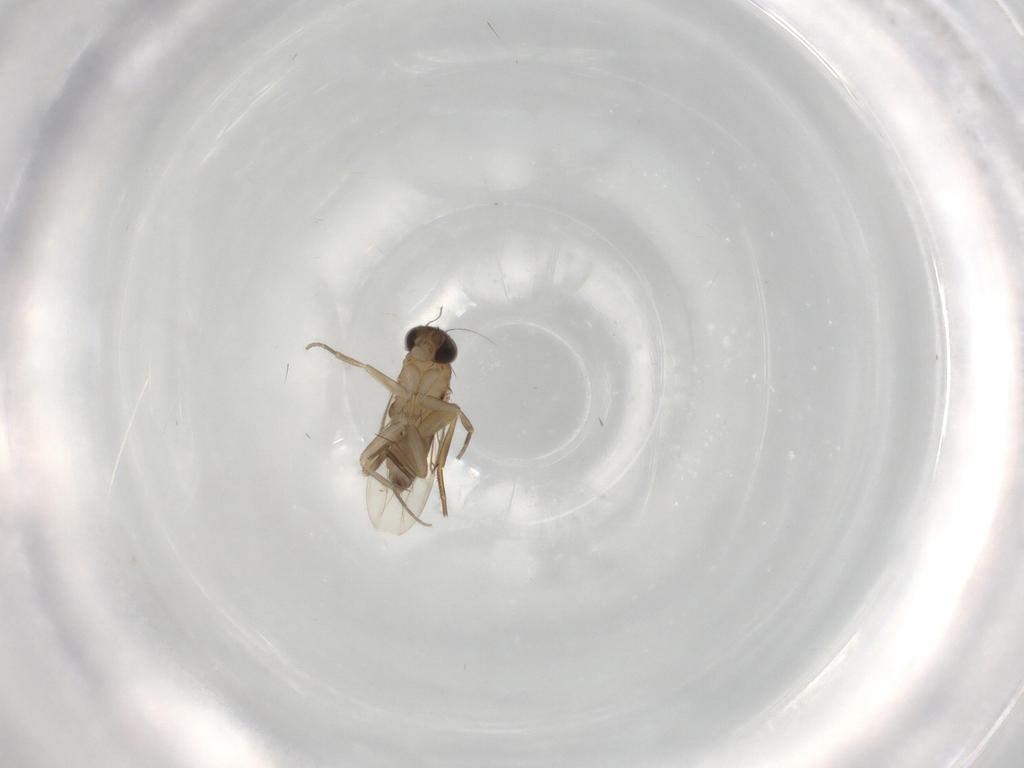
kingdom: Animalia
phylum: Arthropoda
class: Insecta
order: Diptera
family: Phoridae
